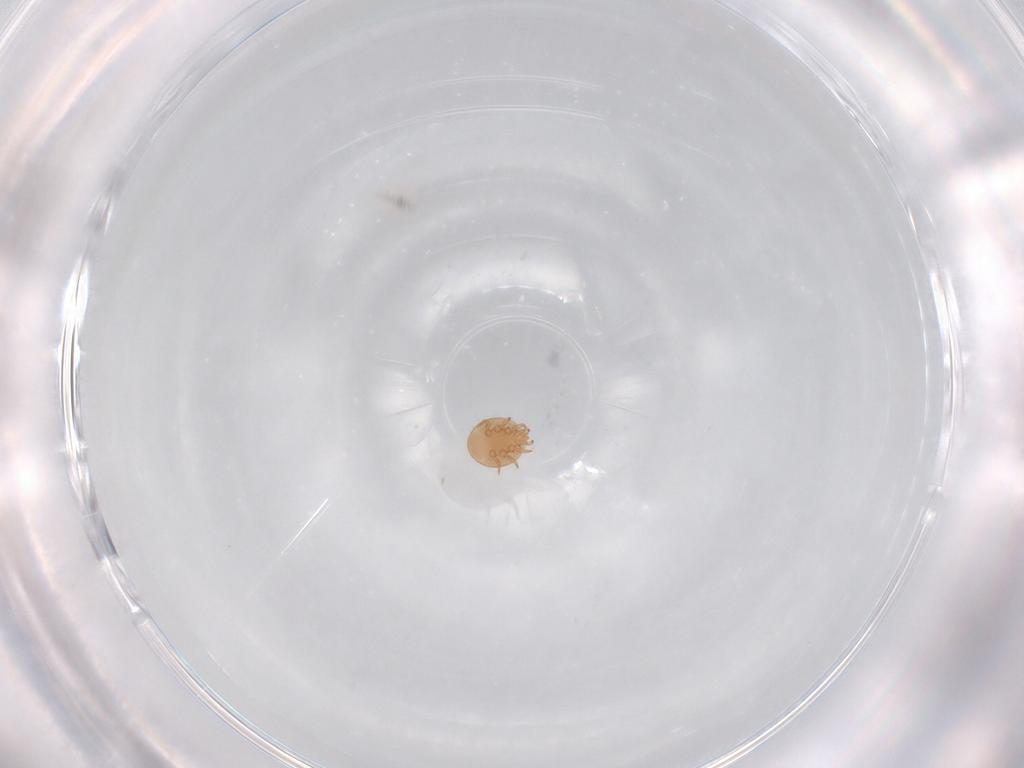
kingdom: Animalia
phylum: Arthropoda
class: Arachnida
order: Mesostigmata
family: Trematuridae
